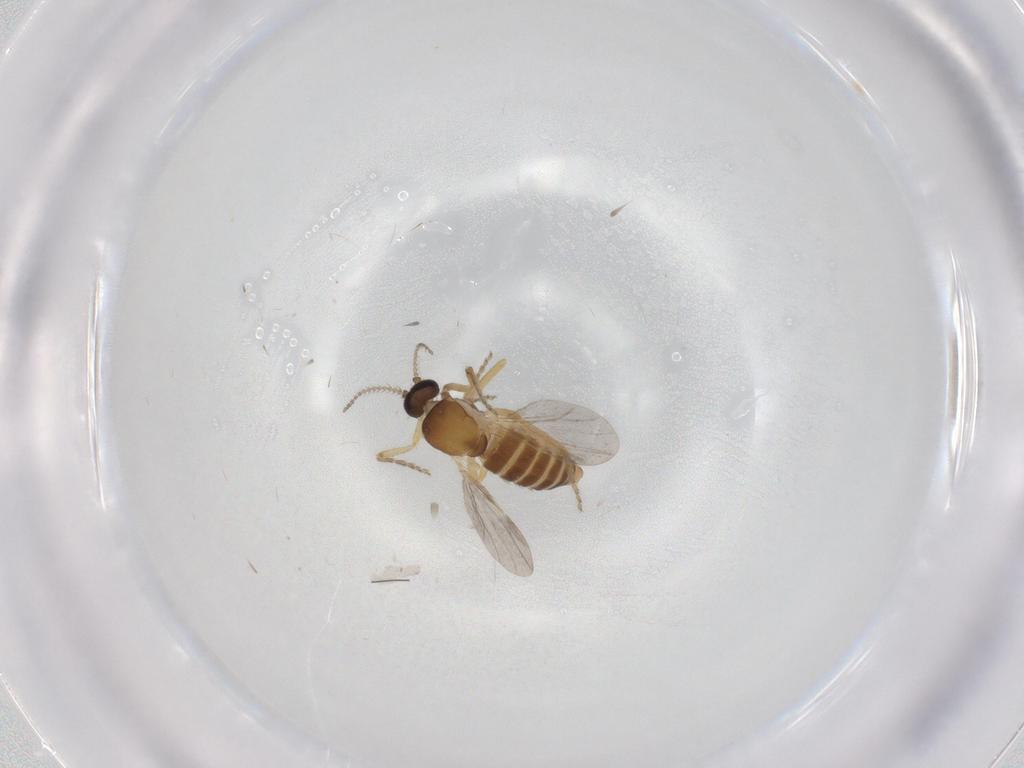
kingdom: Animalia
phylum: Arthropoda
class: Insecta
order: Diptera
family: Ceratopogonidae
